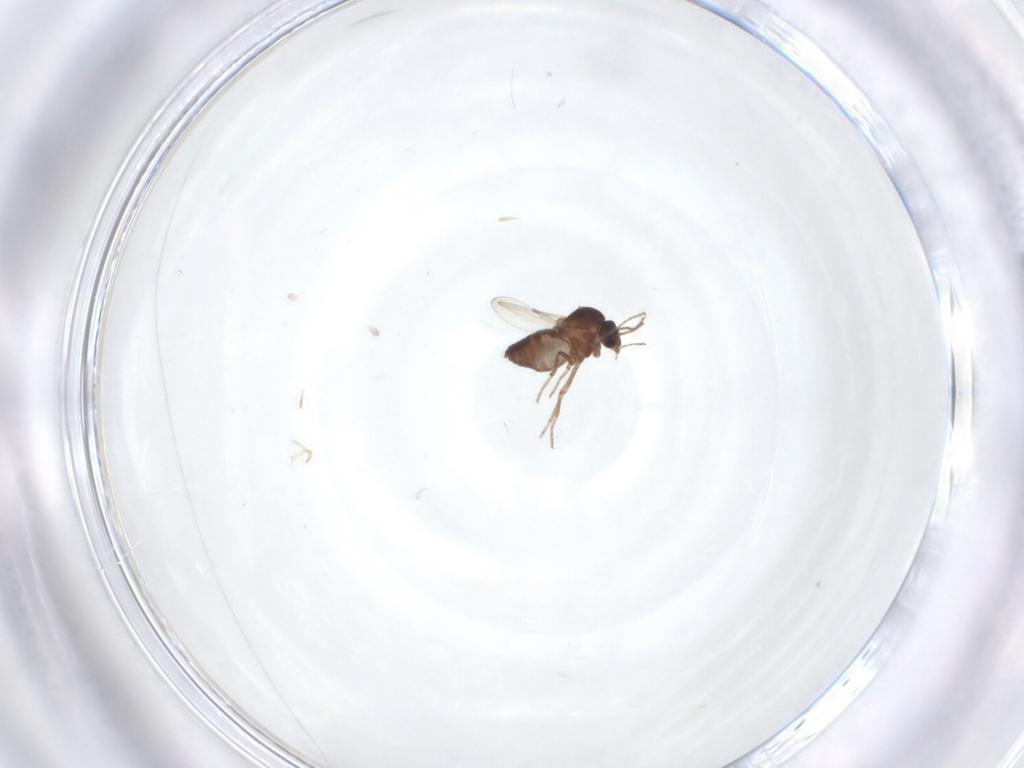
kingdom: Animalia
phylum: Arthropoda
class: Insecta
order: Diptera
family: Ceratopogonidae
